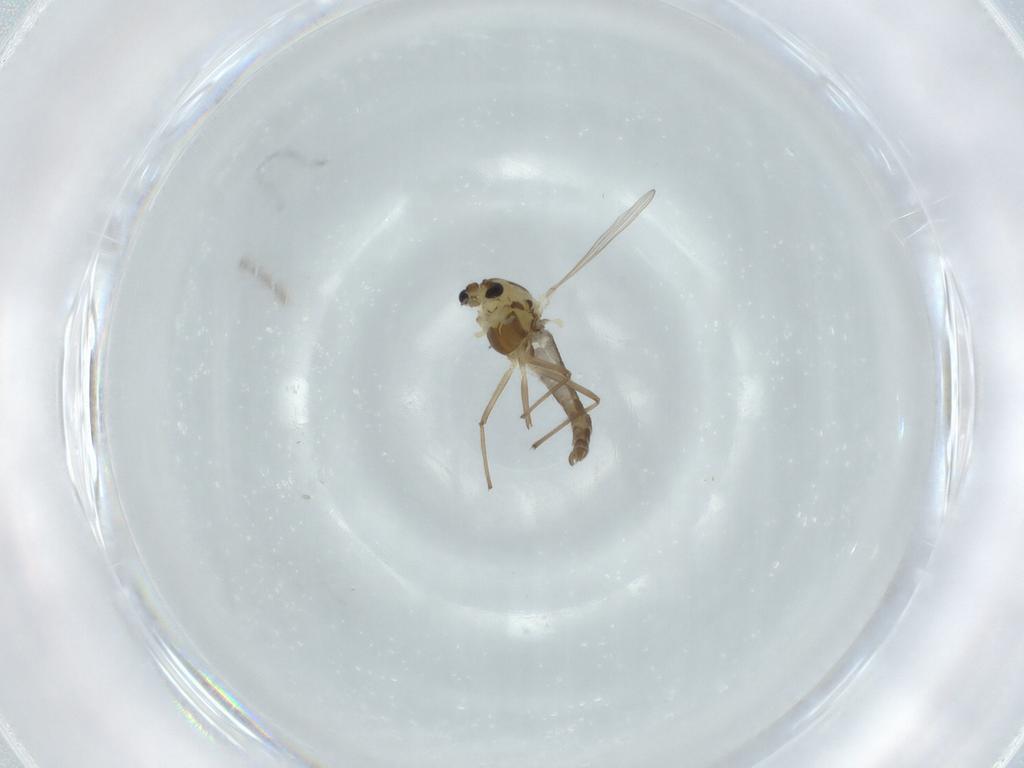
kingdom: Animalia
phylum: Arthropoda
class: Insecta
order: Diptera
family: Chironomidae
